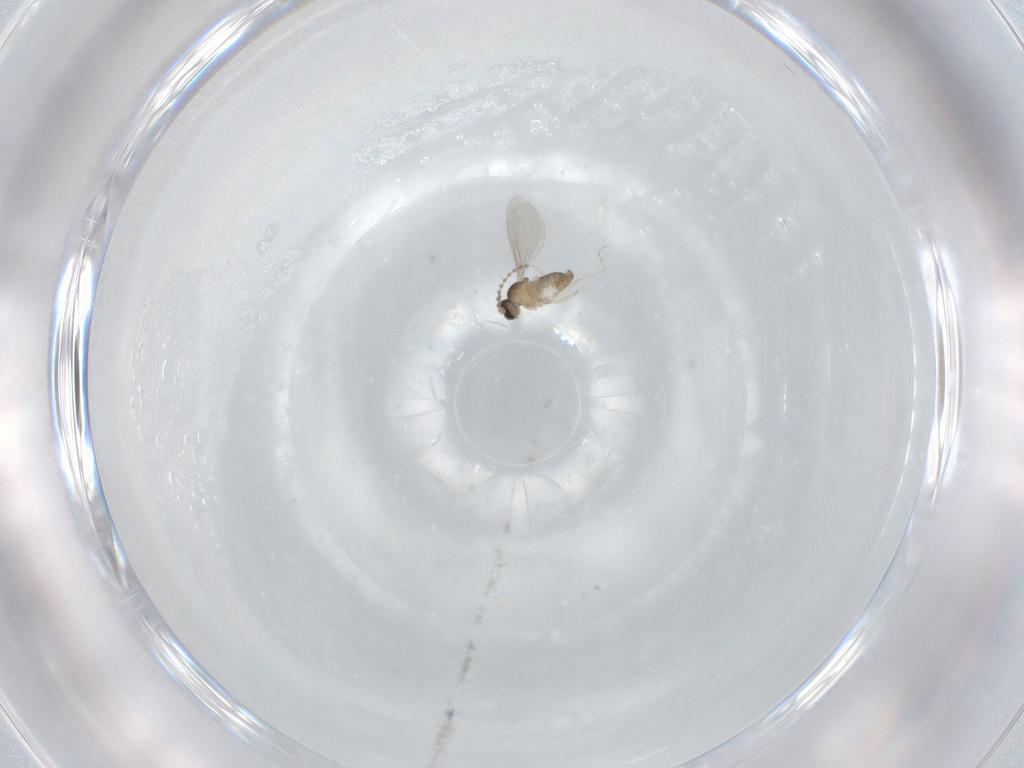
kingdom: Animalia
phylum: Arthropoda
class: Insecta
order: Diptera
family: Cecidomyiidae
